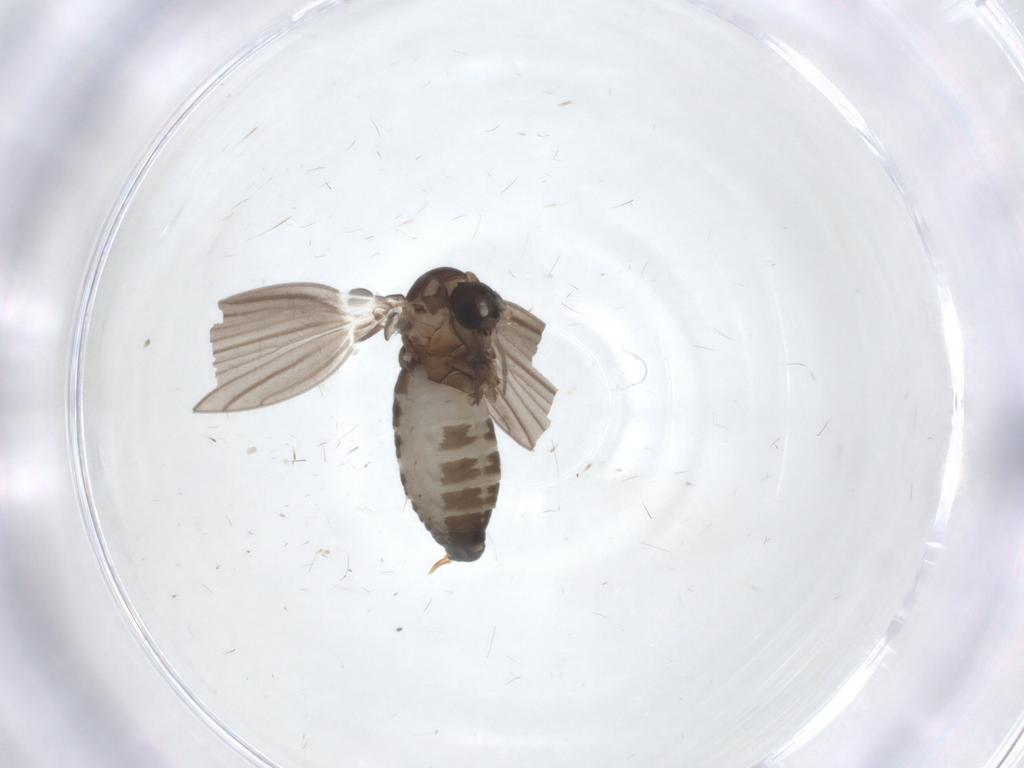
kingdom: Animalia
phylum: Arthropoda
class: Insecta
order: Diptera
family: Psychodidae
